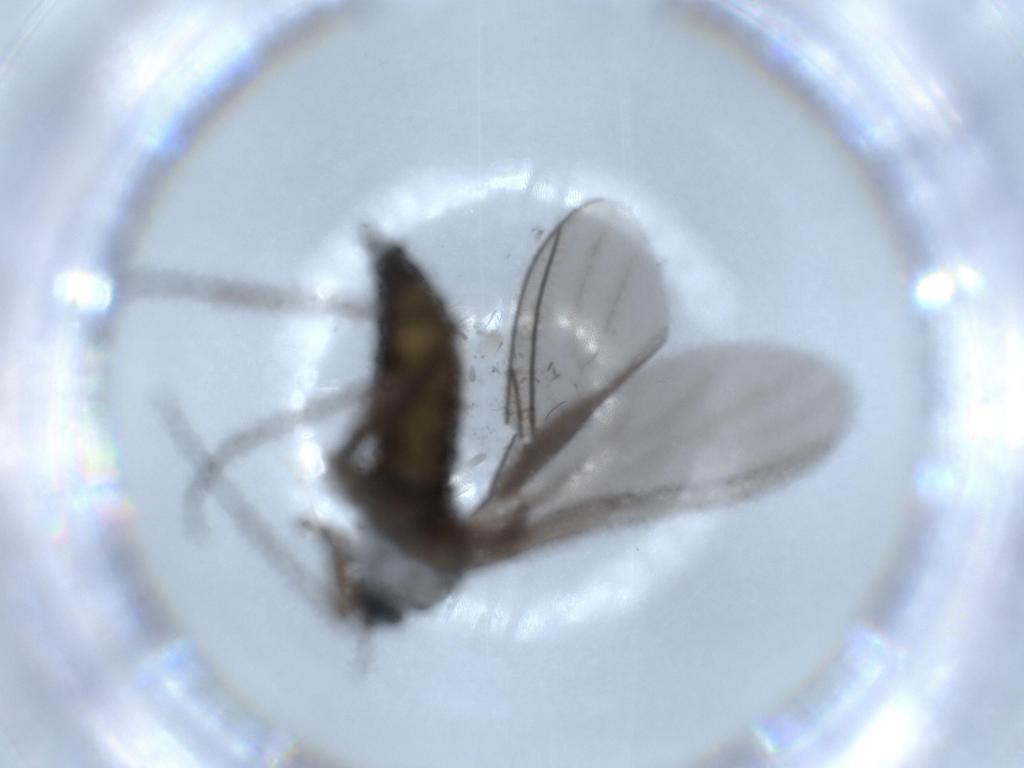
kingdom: Animalia
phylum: Arthropoda
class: Insecta
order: Diptera
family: Sciaridae
